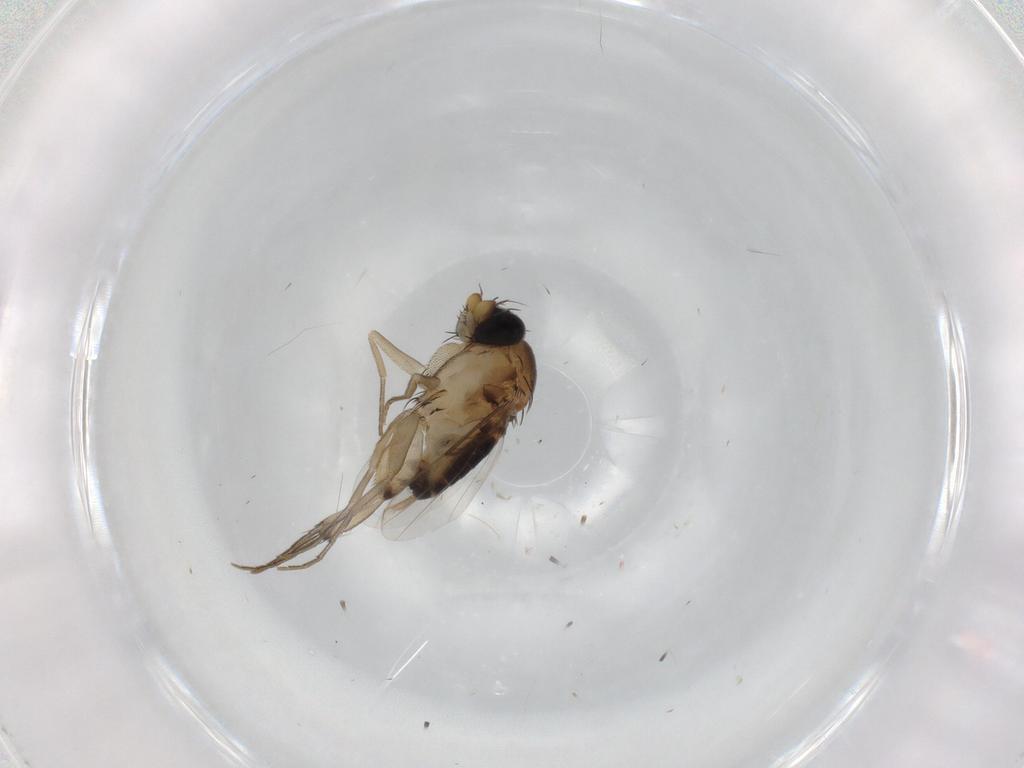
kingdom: Animalia
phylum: Arthropoda
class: Insecta
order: Diptera
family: Phoridae
